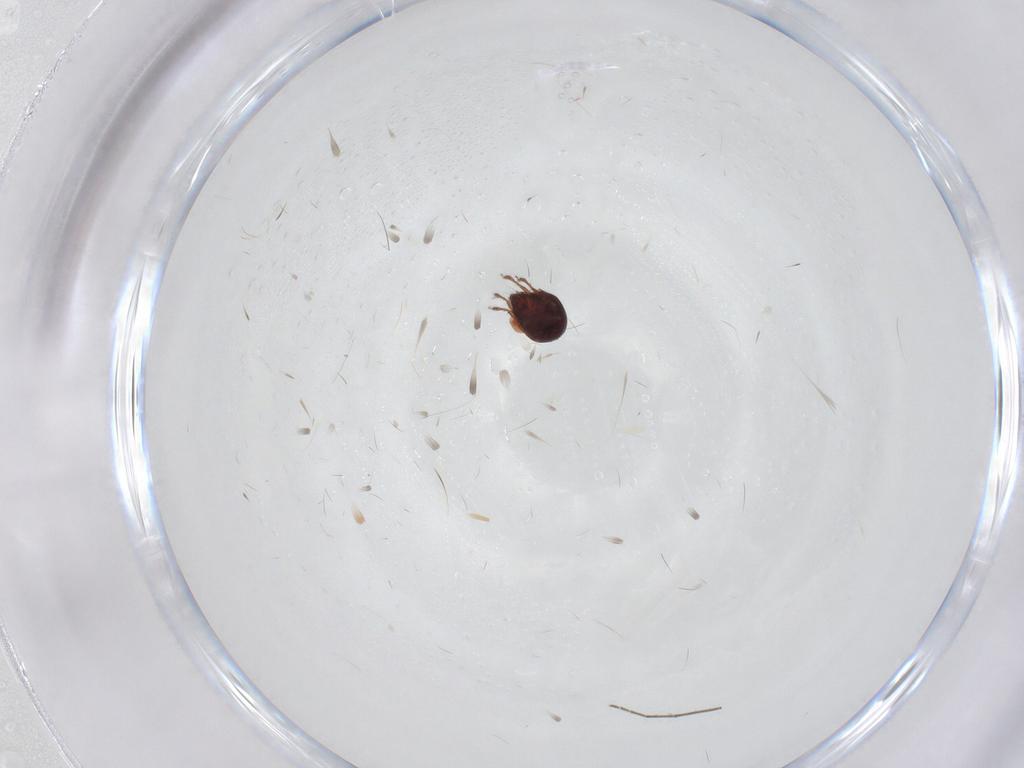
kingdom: Animalia
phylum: Arthropoda
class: Arachnida
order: Sarcoptiformes
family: Ceratozetidae
